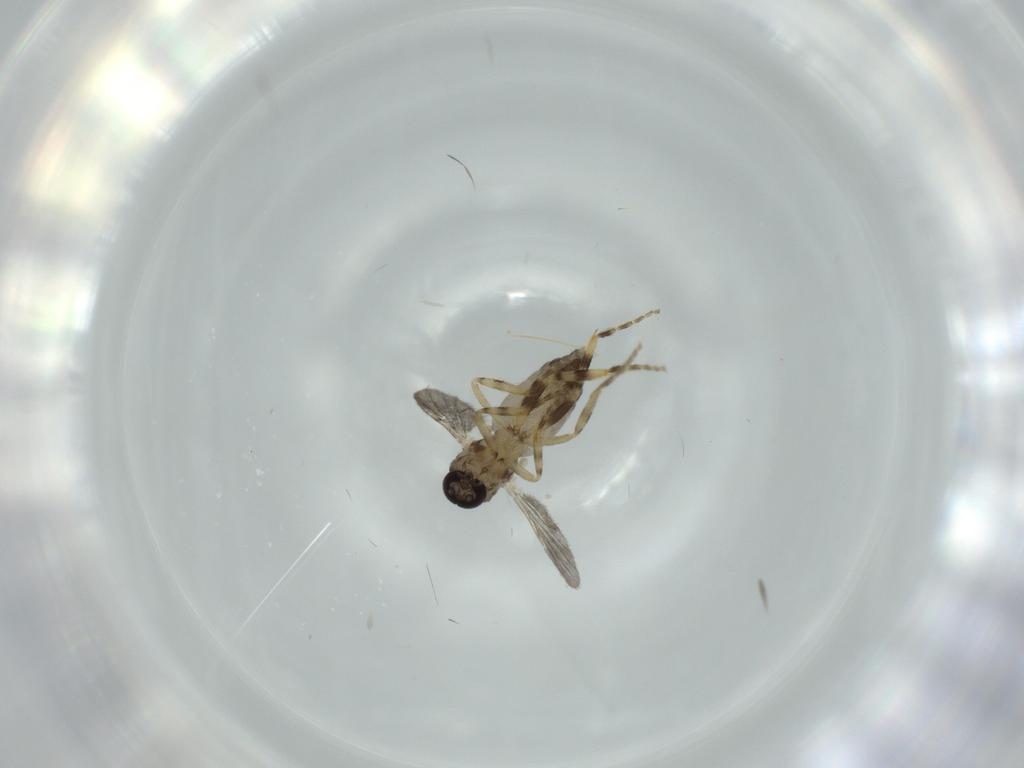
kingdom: Animalia
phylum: Arthropoda
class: Insecta
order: Diptera
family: Cecidomyiidae
